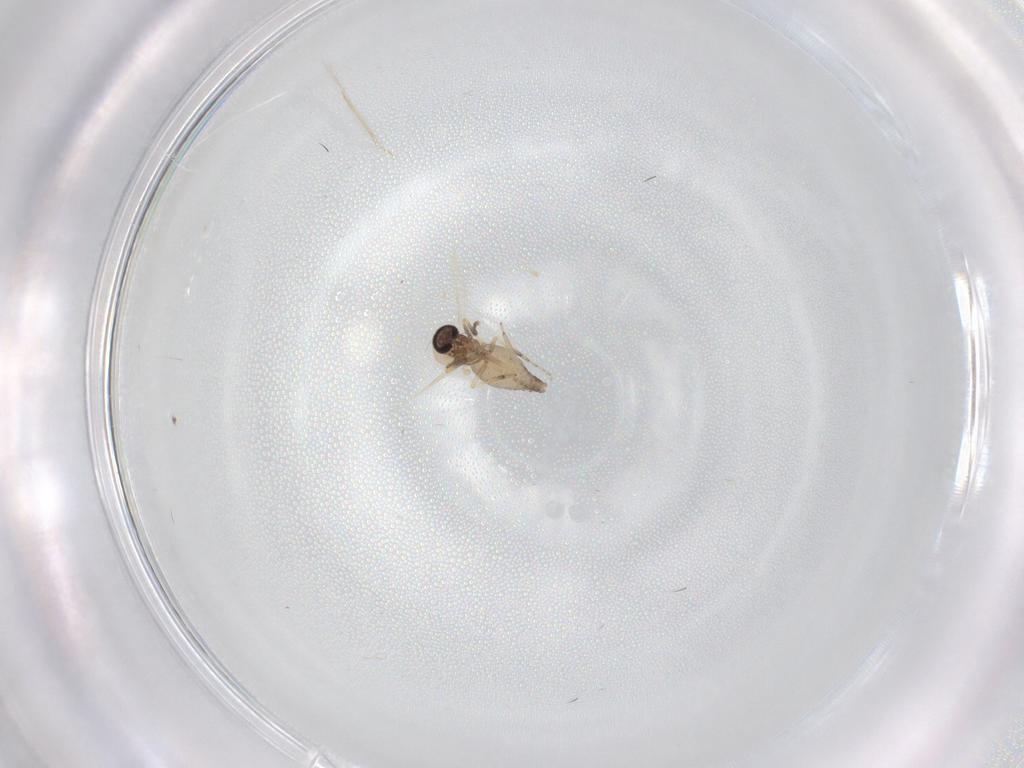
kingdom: Animalia
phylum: Arthropoda
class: Insecta
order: Diptera
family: Ceratopogonidae
